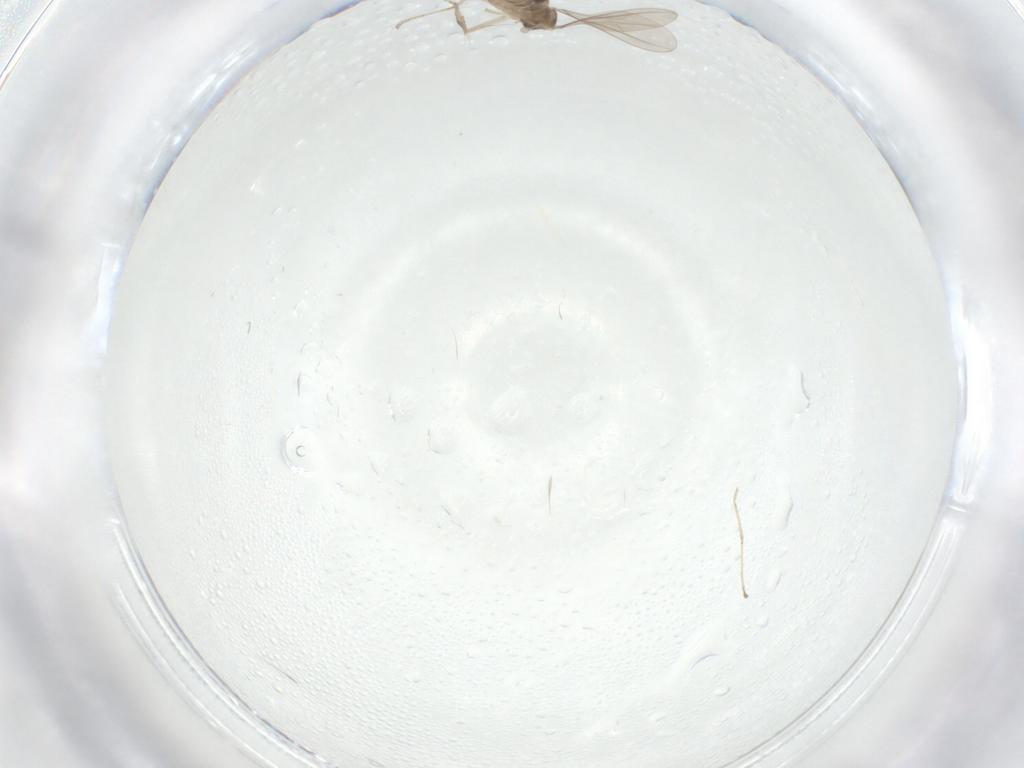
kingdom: Animalia
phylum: Arthropoda
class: Insecta
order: Diptera
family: Cecidomyiidae
